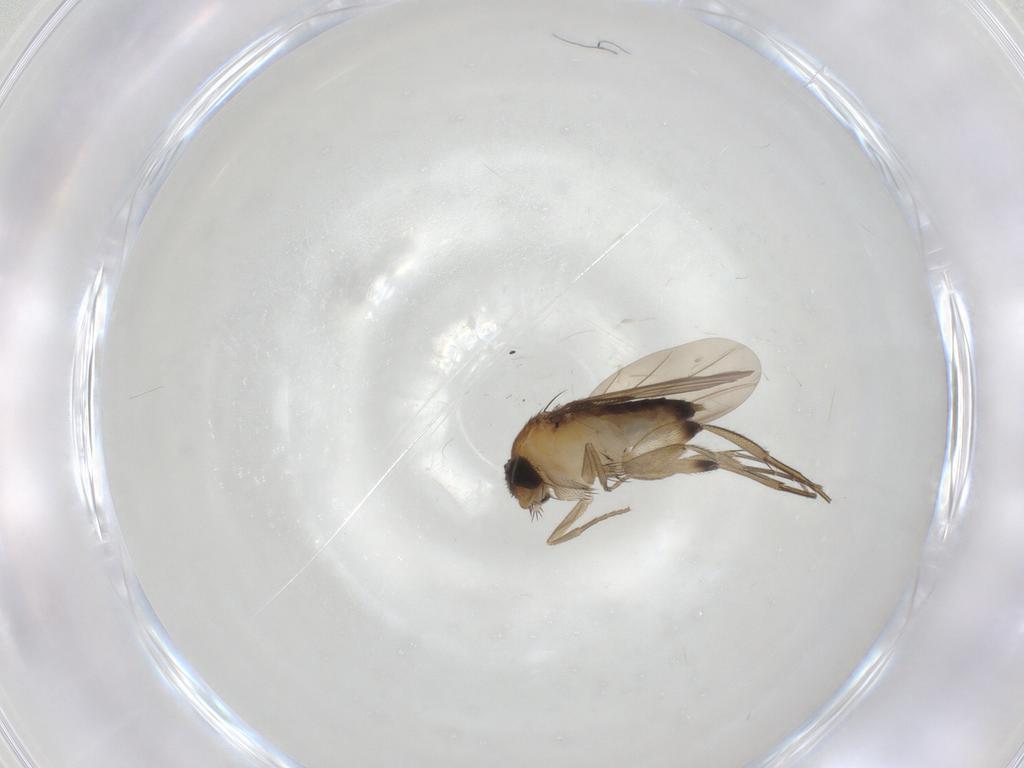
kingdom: Animalia
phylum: Arthropoda
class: Insecta
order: Diptera
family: Phoridae
